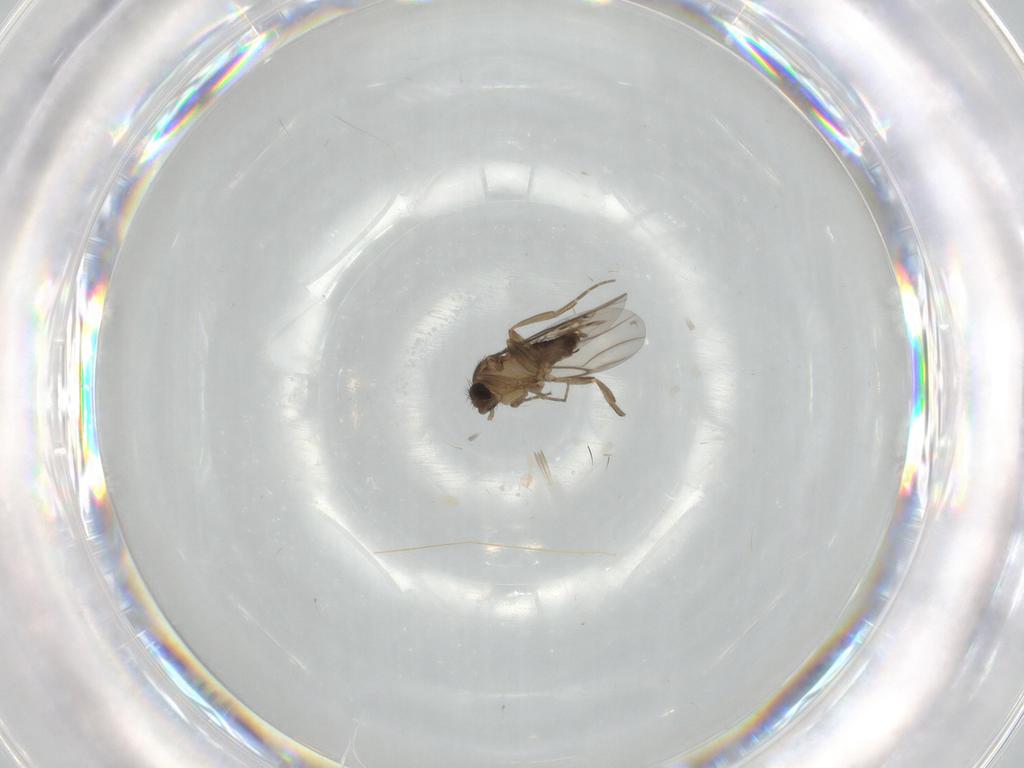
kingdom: Animalia
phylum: Arthropoda
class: Insecta
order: Diptera
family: Phoridae
